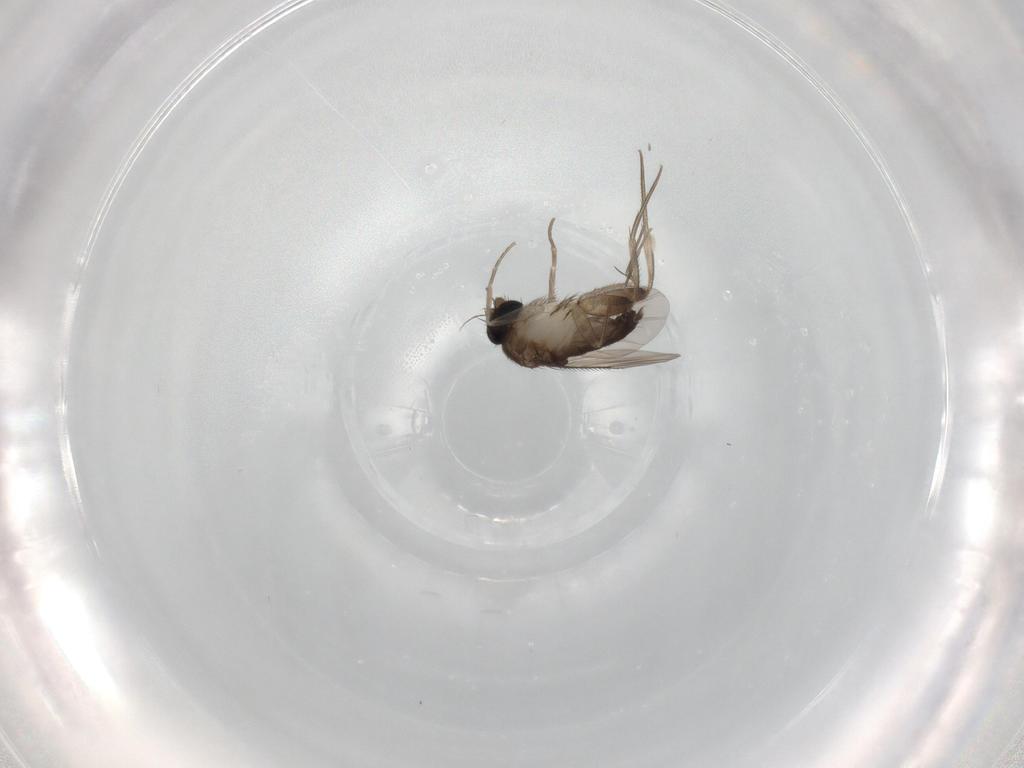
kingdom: Animalia
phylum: Arthropoda
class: Insecta
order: Diptera
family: Phoridae
